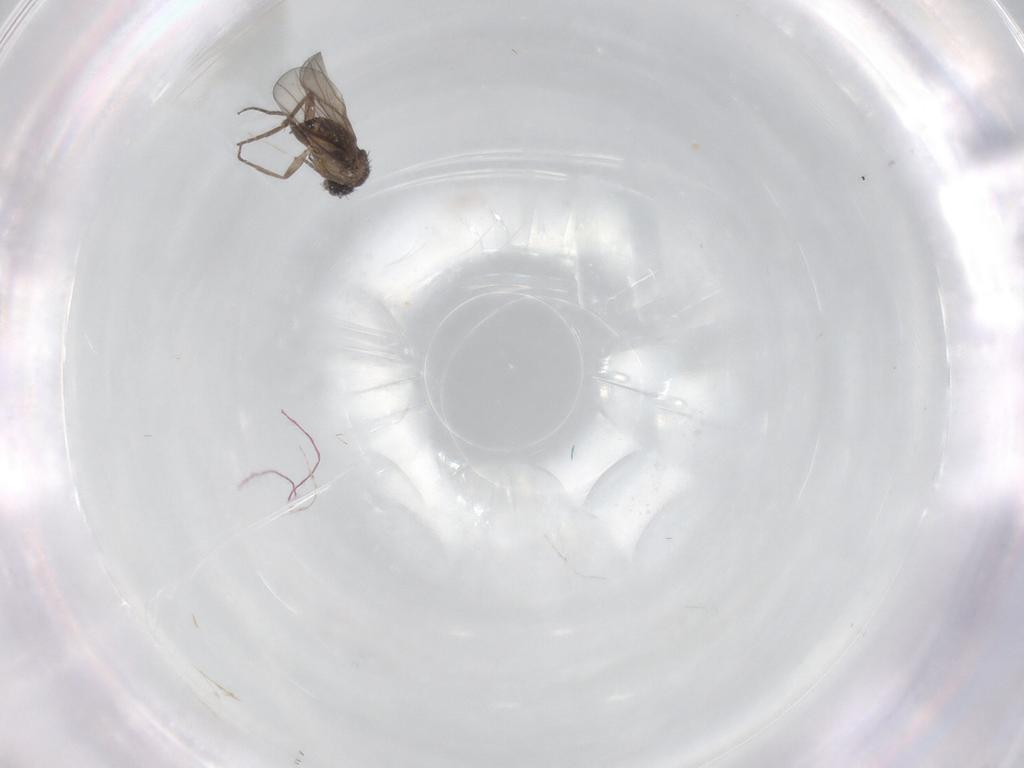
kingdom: Animalia
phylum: Arthropoda
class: Insecta
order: Diptera
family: Phoridae
